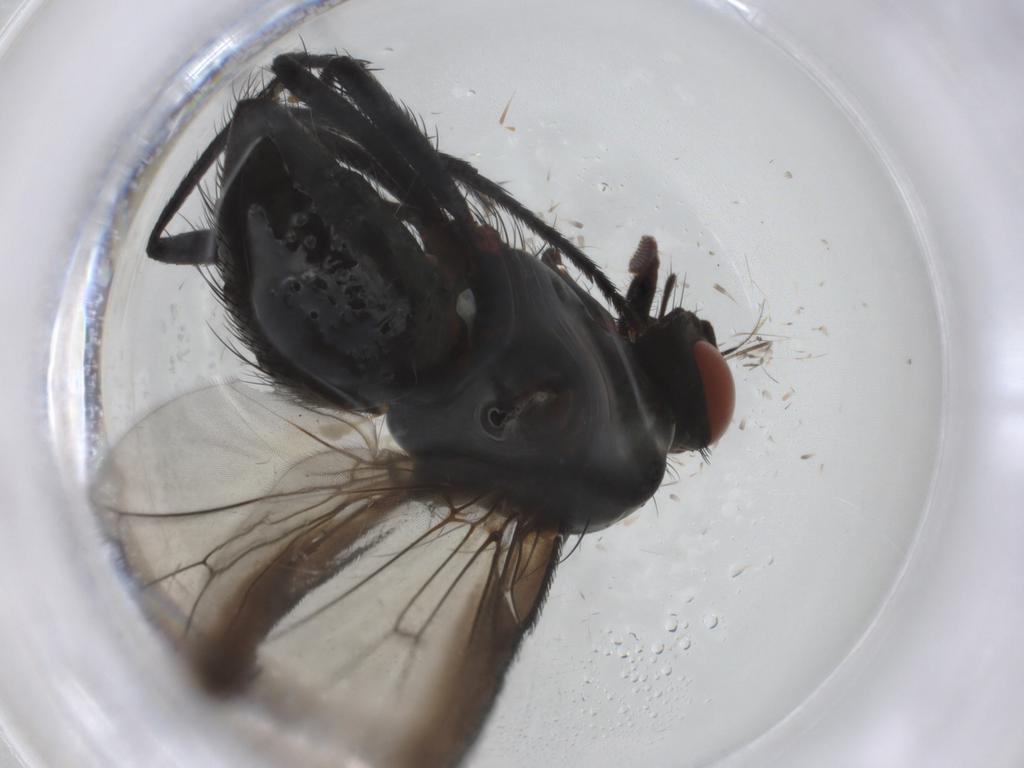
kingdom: Animalia
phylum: Arthropoda
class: Insecta
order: Diptera
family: Anthomyiidae
